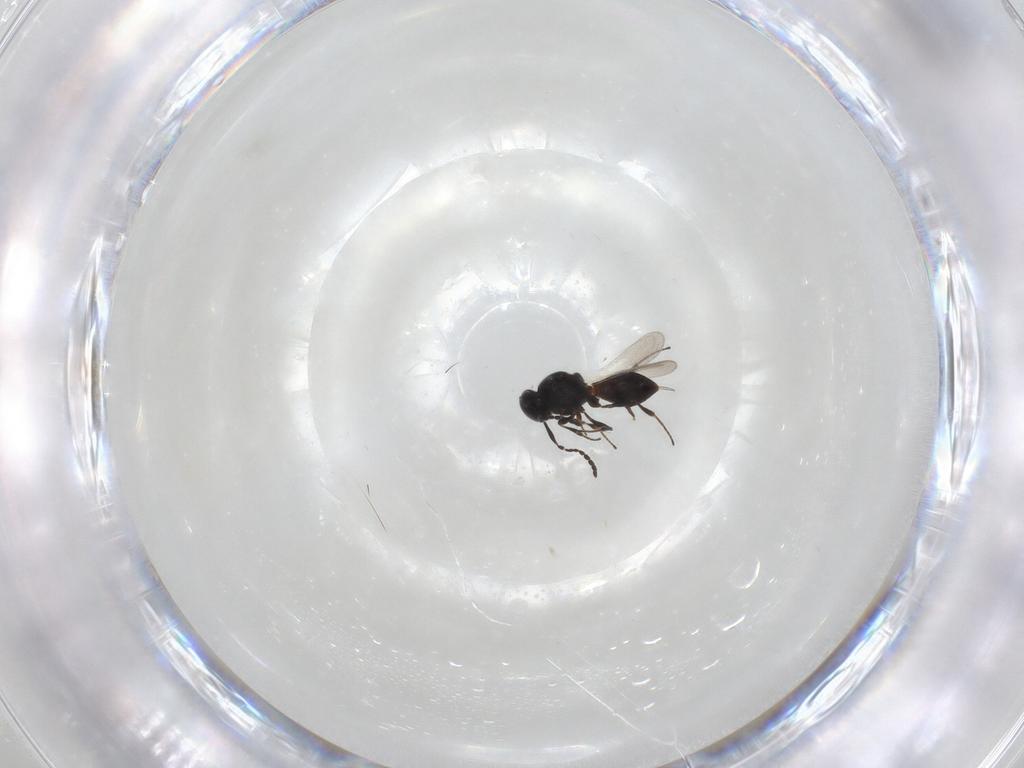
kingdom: Animalia
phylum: Arthropoda
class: Insecta
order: Hymenoptera
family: Platygastridae
